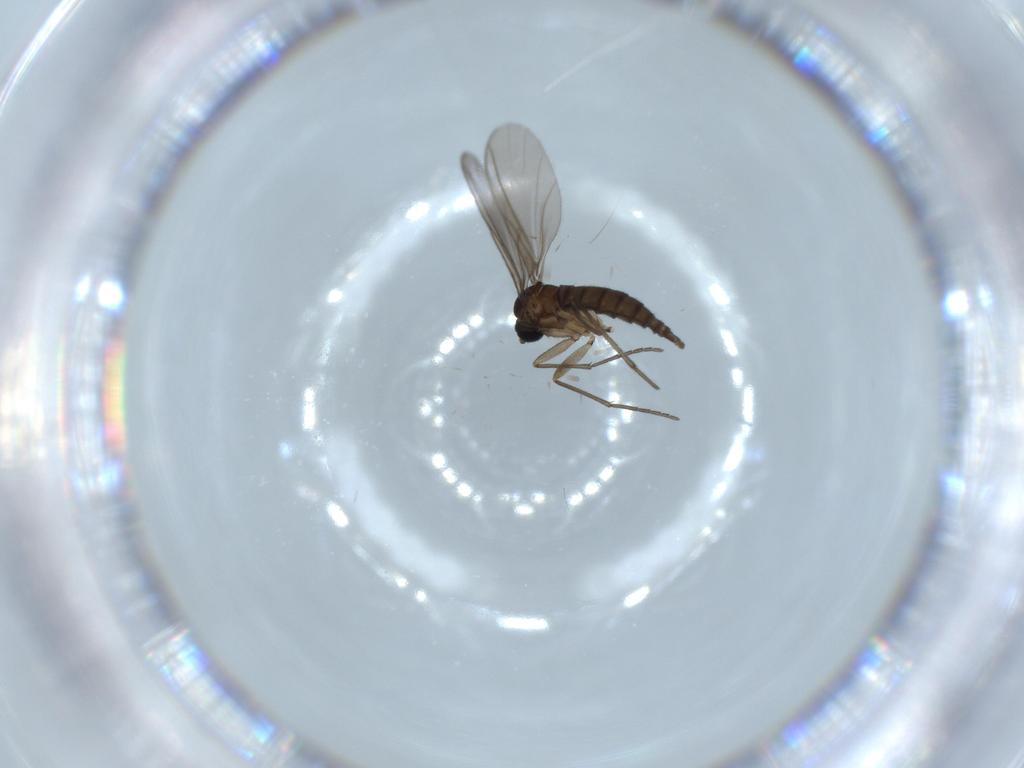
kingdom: Animalia
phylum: Arthropoda
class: Insecta
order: Diptera
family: Sciaridae
